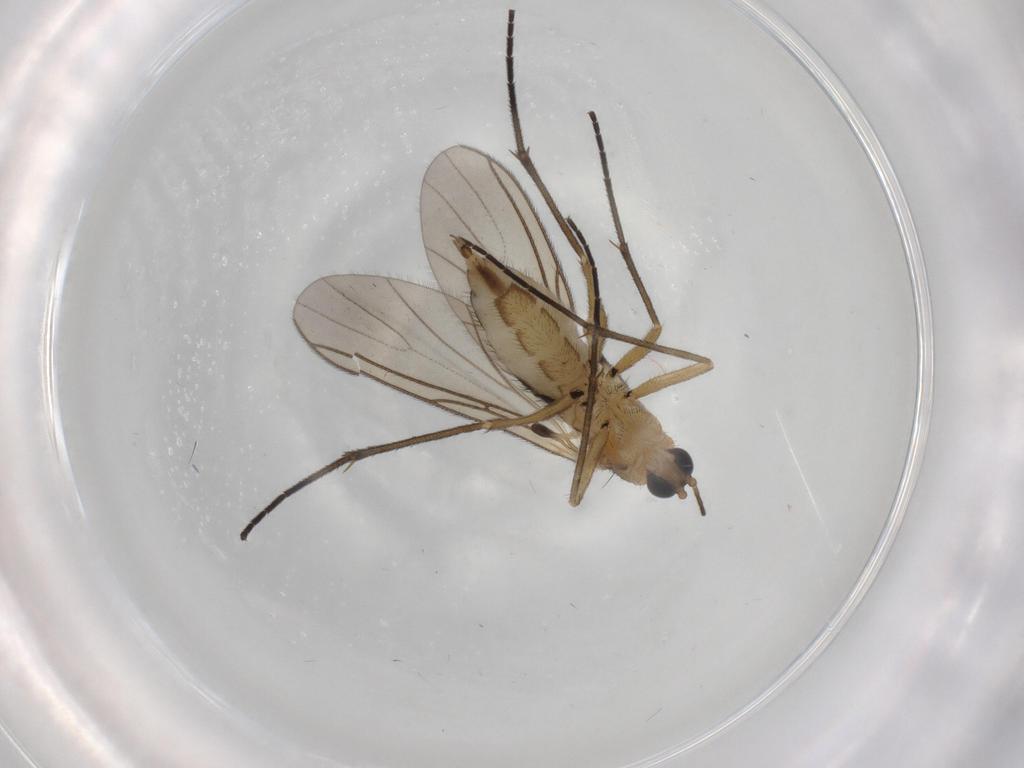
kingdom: Animalia
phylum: Arthropoda
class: Insecta
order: Diptera
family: Sciaridae
